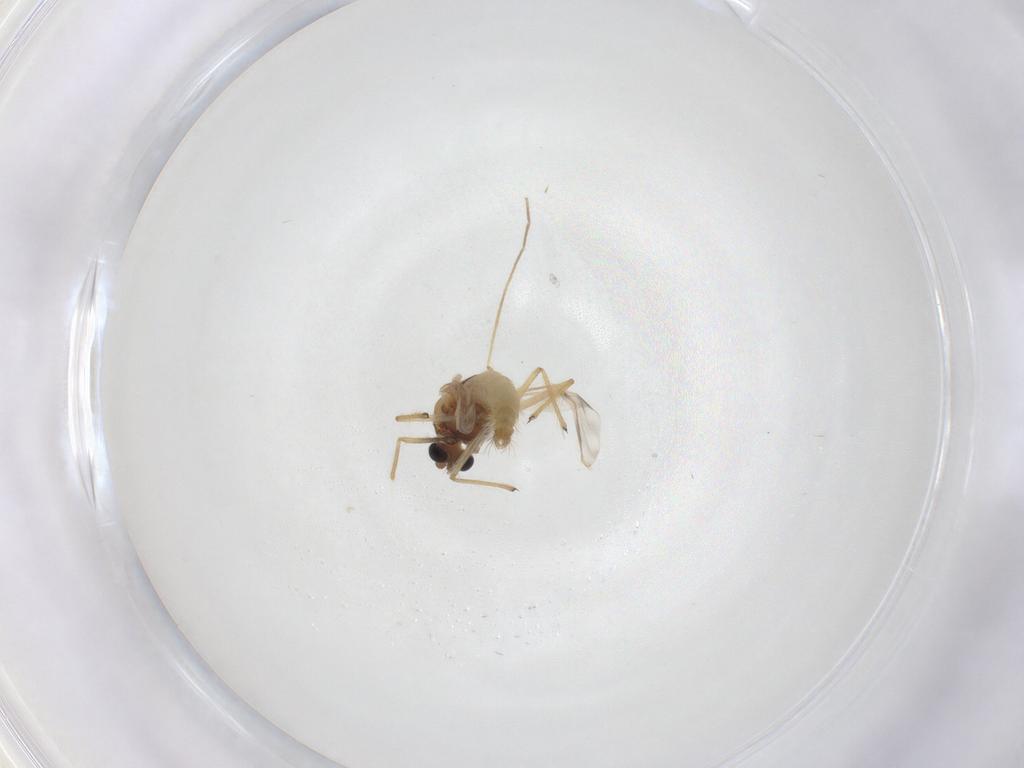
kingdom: Animalia
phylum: Arthropoda
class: Insecta
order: Diptera
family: Chironomidae
